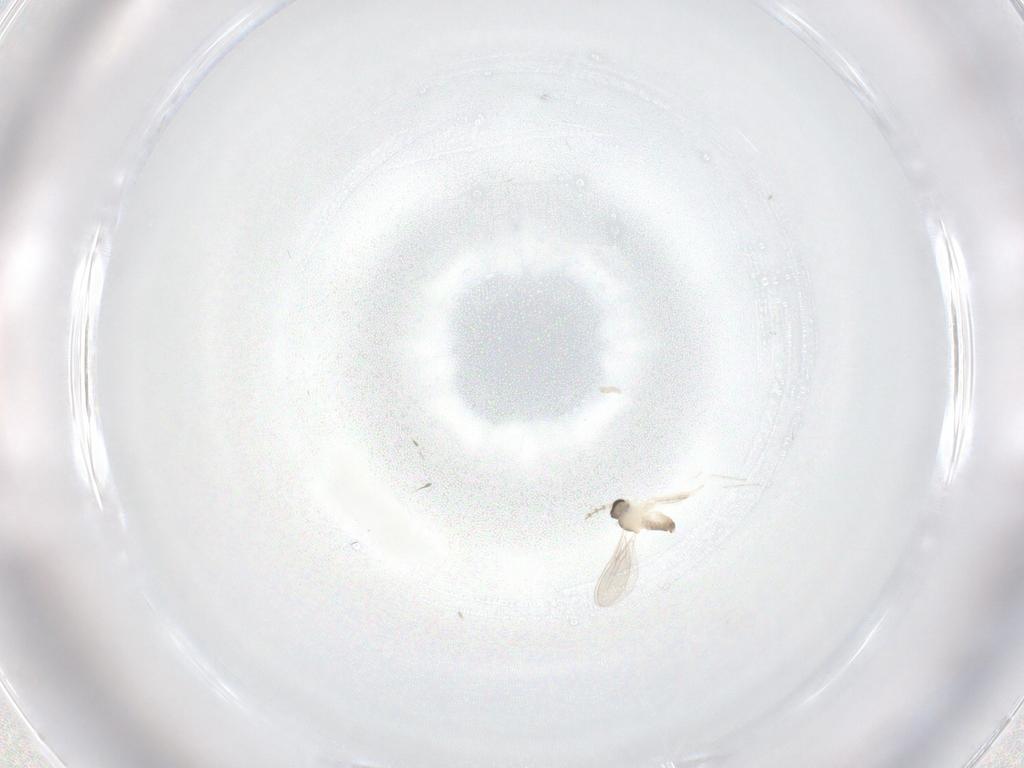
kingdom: Animalia
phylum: Arthropoda
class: Insecta
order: Diptera
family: Cecidomyiidae
